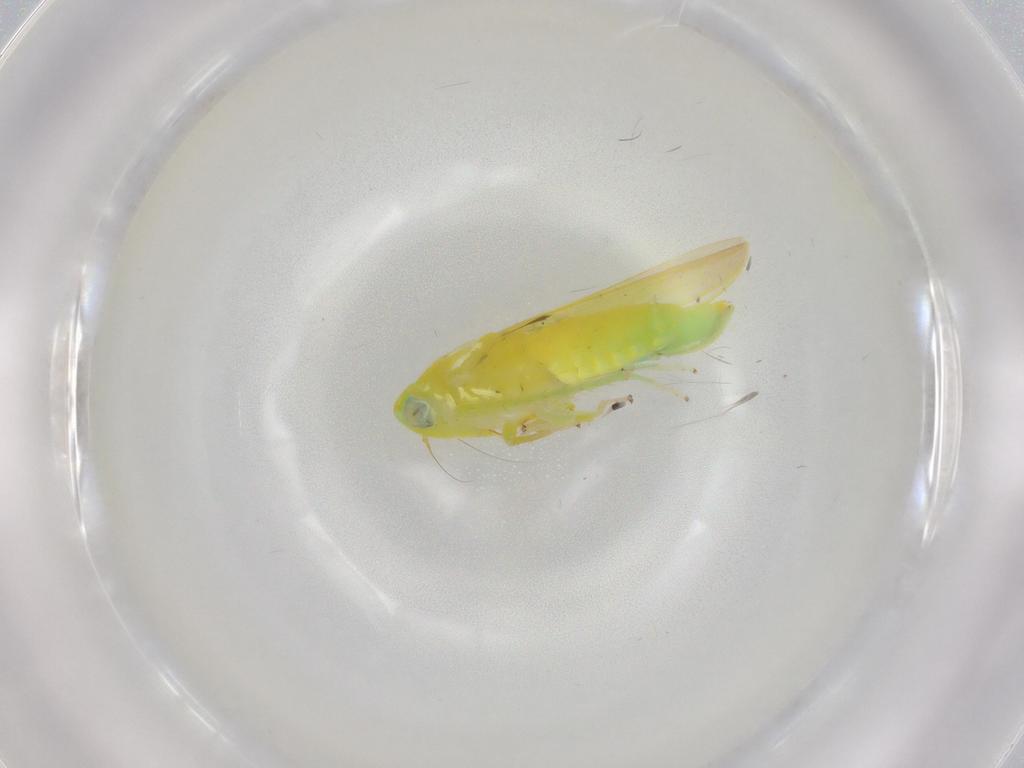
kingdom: Animalia
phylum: Arthropoda
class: Insecta
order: Hemiptera
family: Cicadellidae
